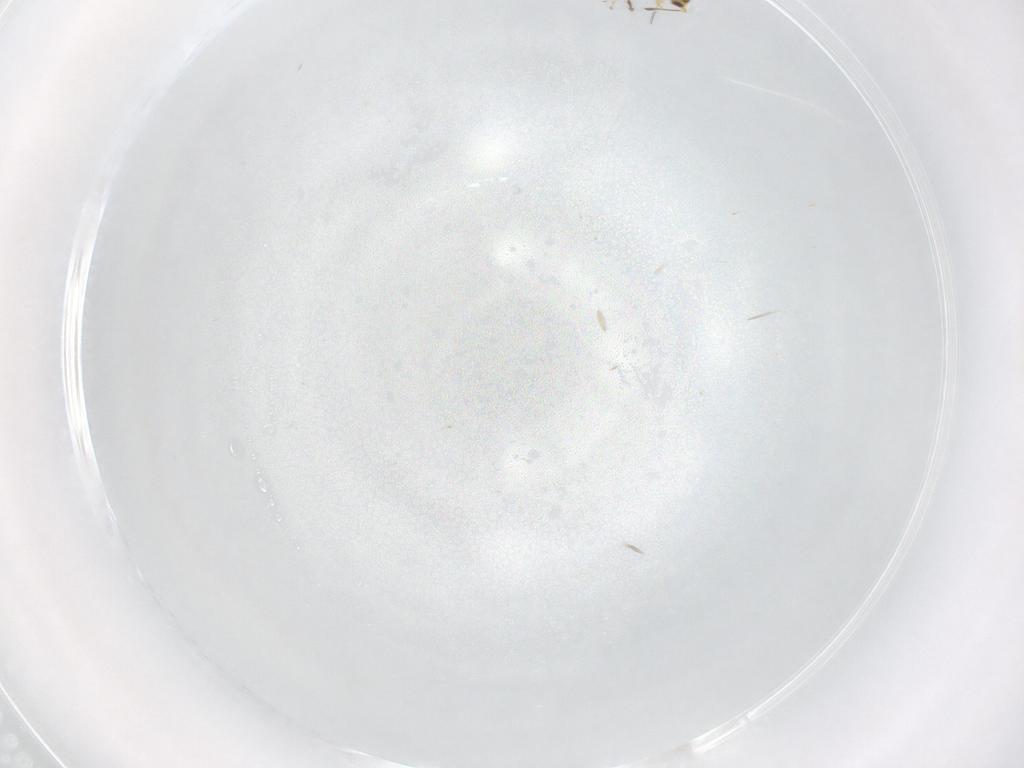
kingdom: Animalia
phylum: Arthropoda
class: Insecta
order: Hymenoptera
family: Mymaridae
